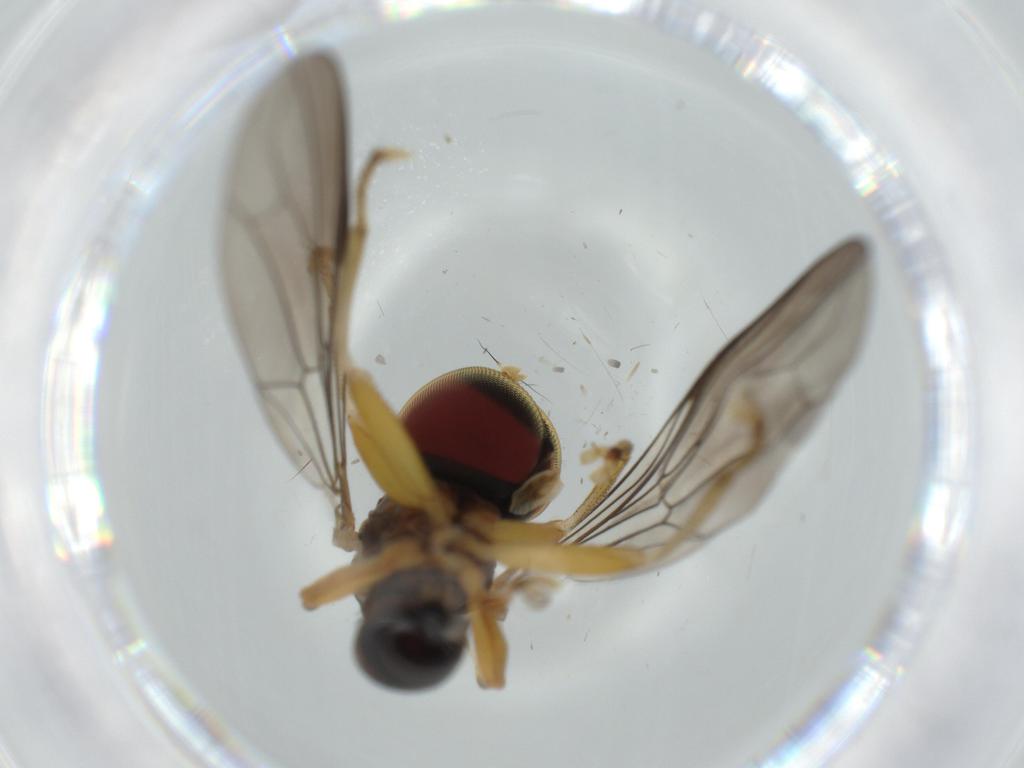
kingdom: Animalia
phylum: Arthropoda
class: Insecta
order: Diptera
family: Pipunculidae
